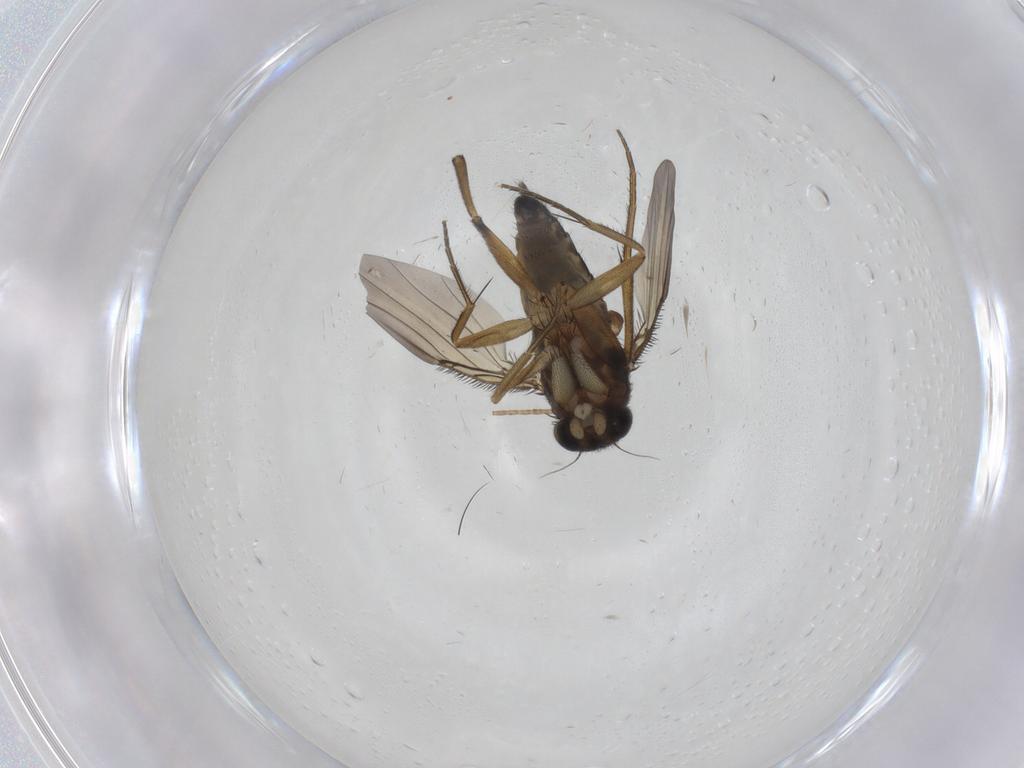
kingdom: Animalia
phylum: Arthropoda
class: Insecta
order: Diptera
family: Phoridae
